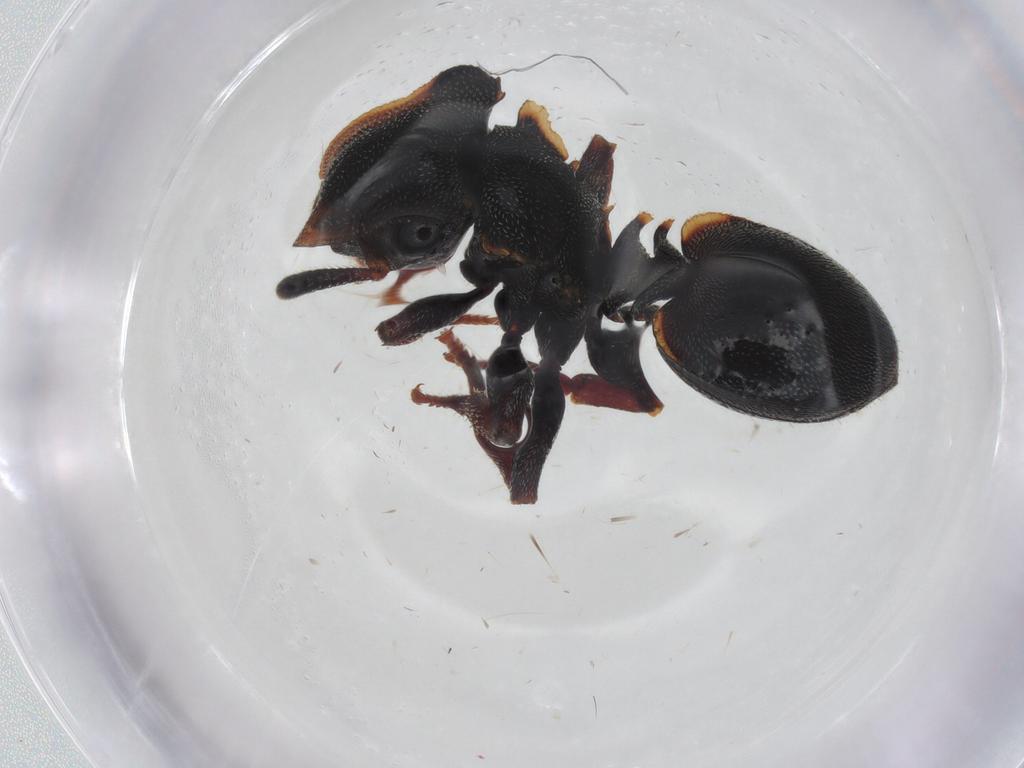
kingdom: Animalia
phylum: Arthropoda
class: Insecta
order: Hymenoptera
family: Formicidae
